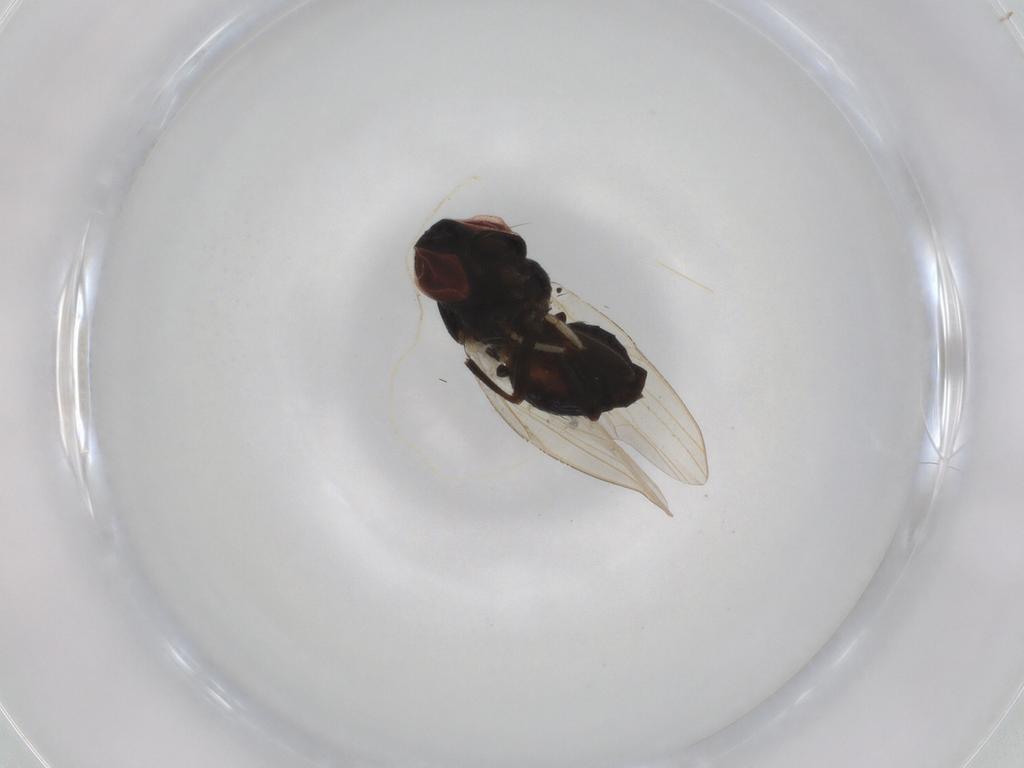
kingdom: Animalia
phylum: Arthropoda
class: Insecta
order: Diptera
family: Lonchaeidae
